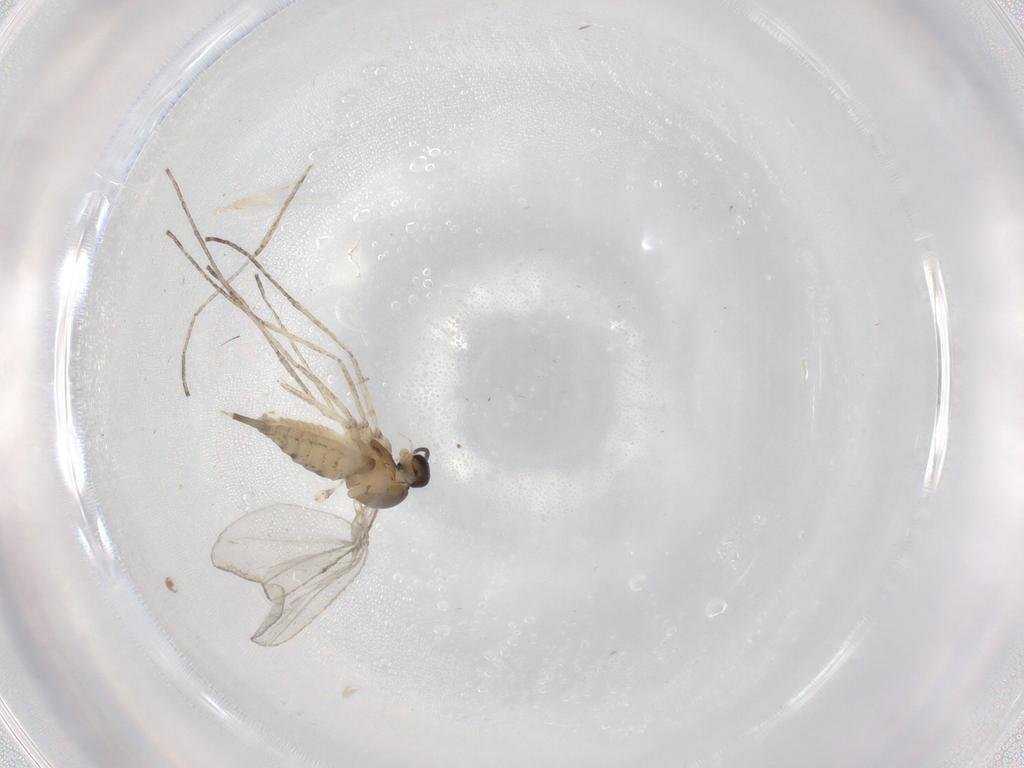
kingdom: Animalia
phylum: Arthropoda
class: Insecta
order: Diptera
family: Cecidomyiidae
